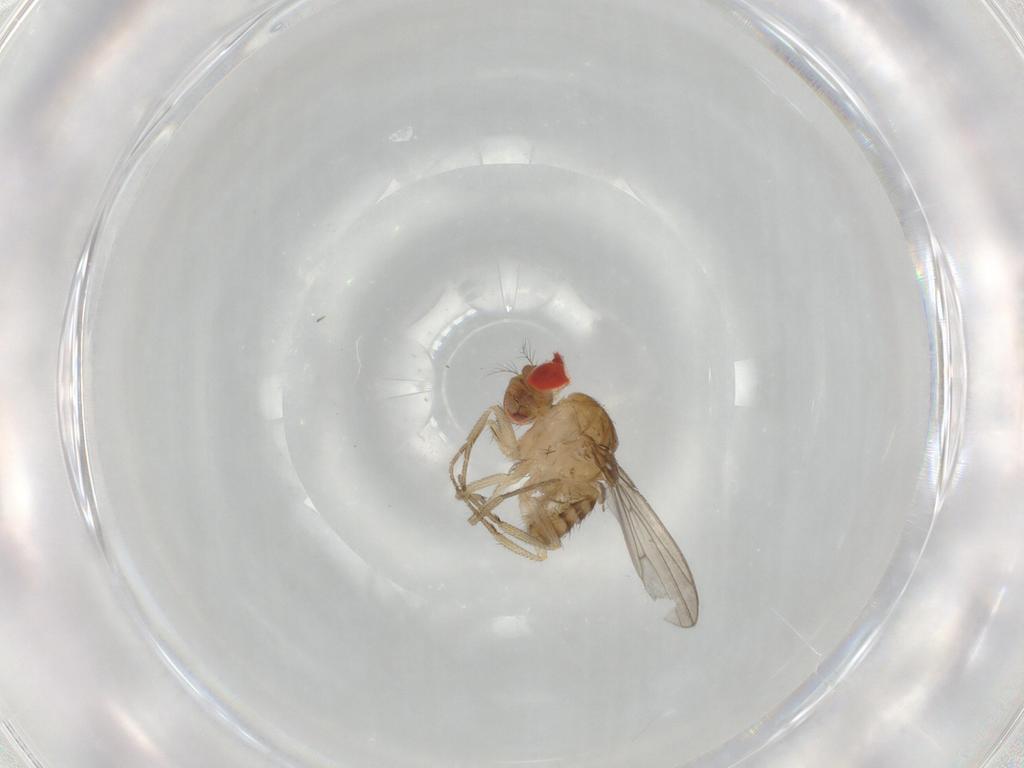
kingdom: Animalia
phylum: Arthropoda
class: Insecta
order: Diptera
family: Drosophilidae
